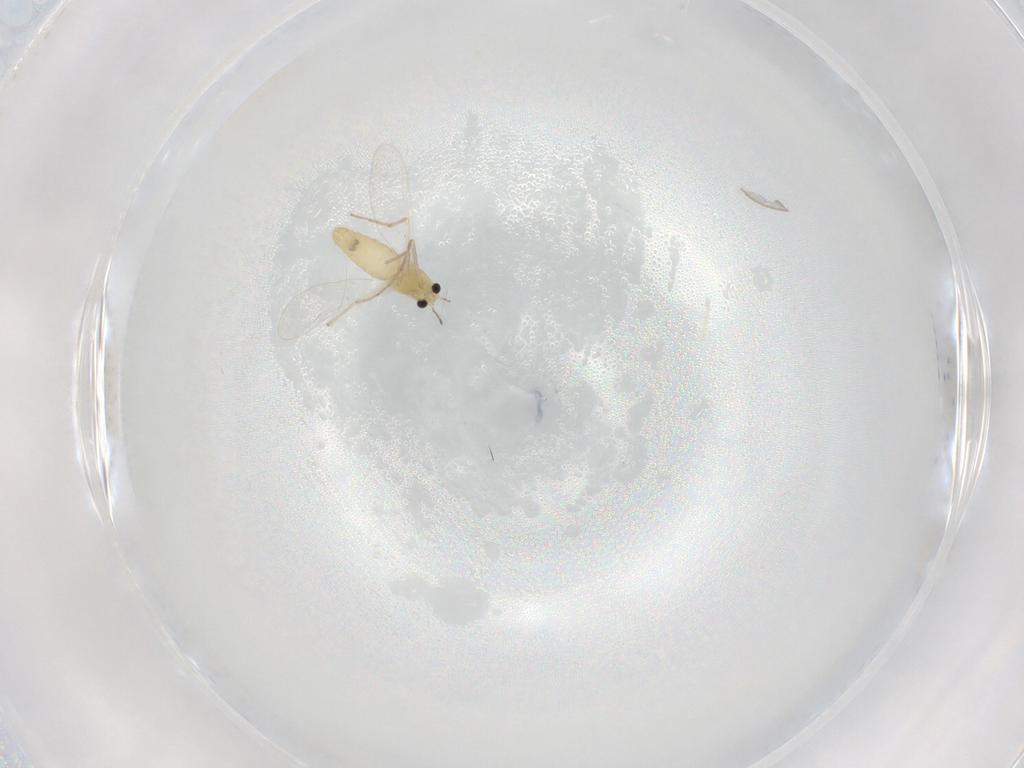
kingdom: Animalia
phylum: Arthropoda
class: Insecta
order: Diptera
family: Chironomidae
